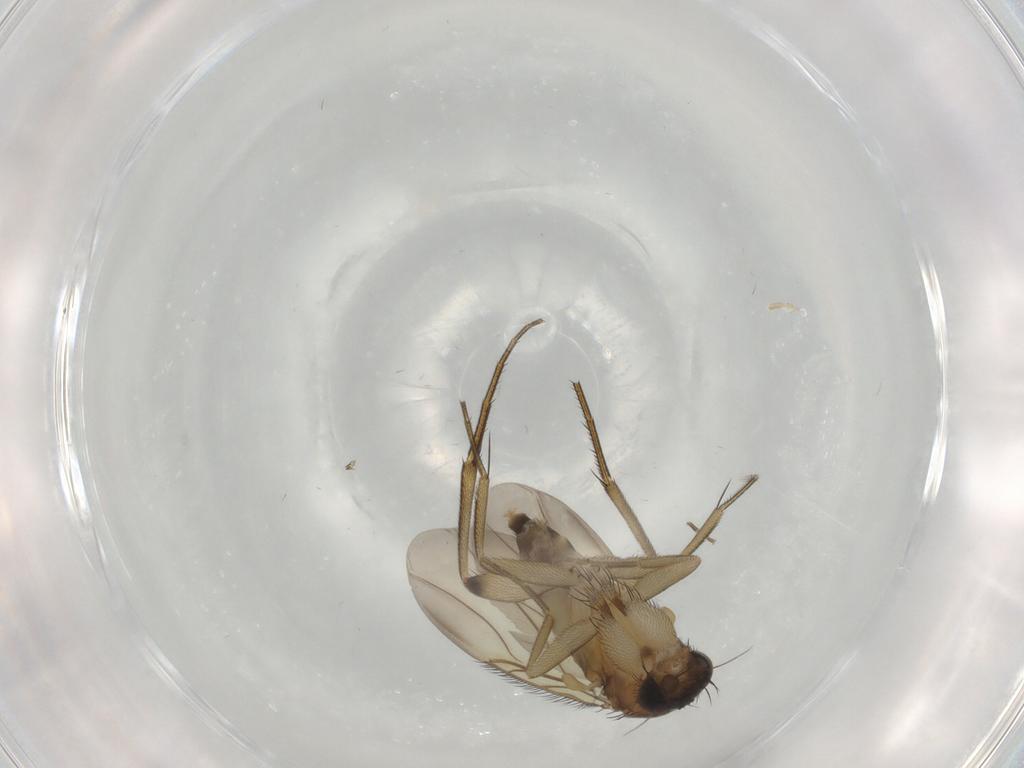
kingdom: Animalia
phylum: Arthropoda
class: Insecta
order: Diptera
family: Phoridae
